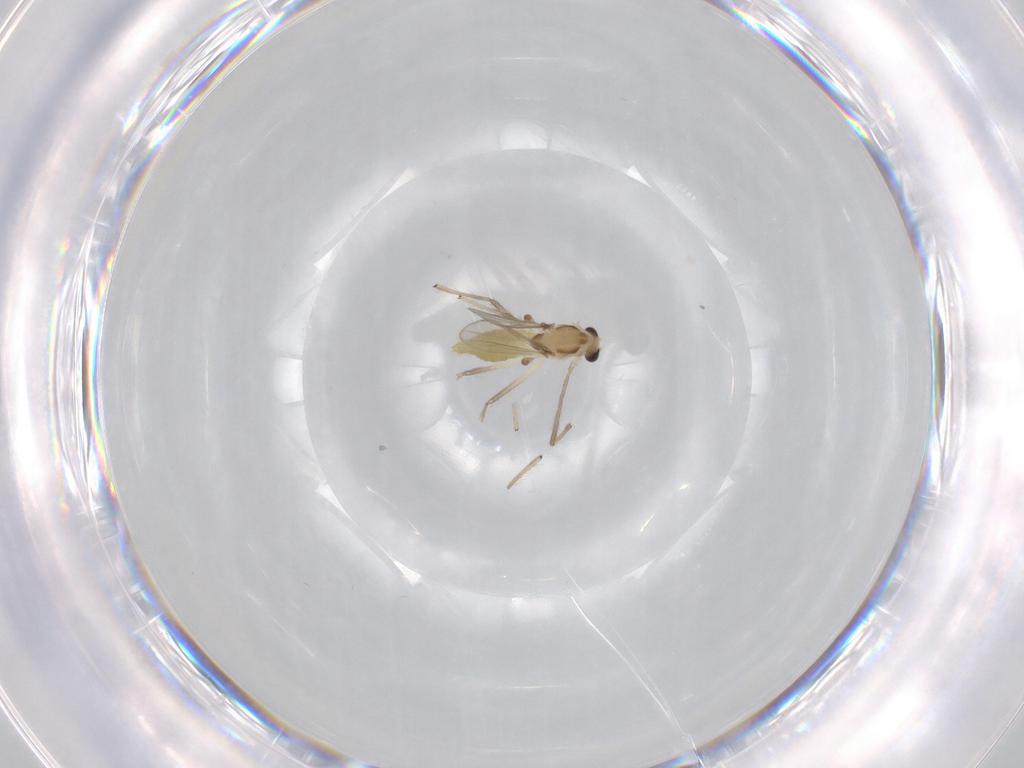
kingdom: Animalia
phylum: Arthropoda
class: Insecta
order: Diptera
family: Chironomidae
